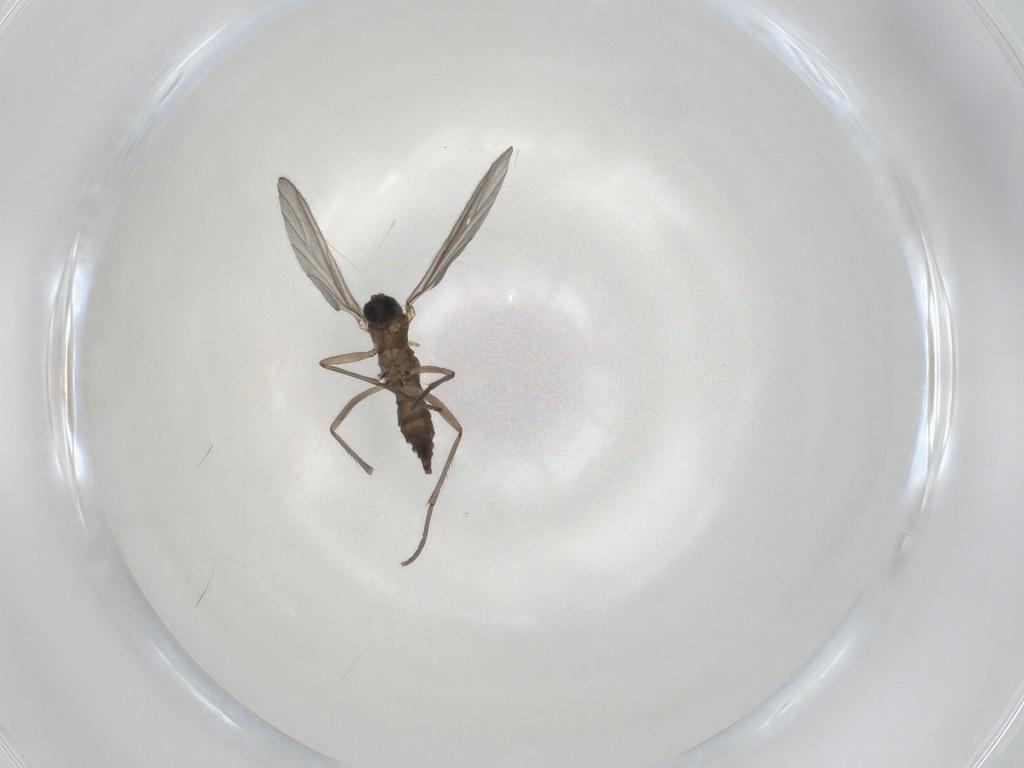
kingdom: Animalia
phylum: Arthropoda
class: Insecta
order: Diptera
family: Sciaridae
